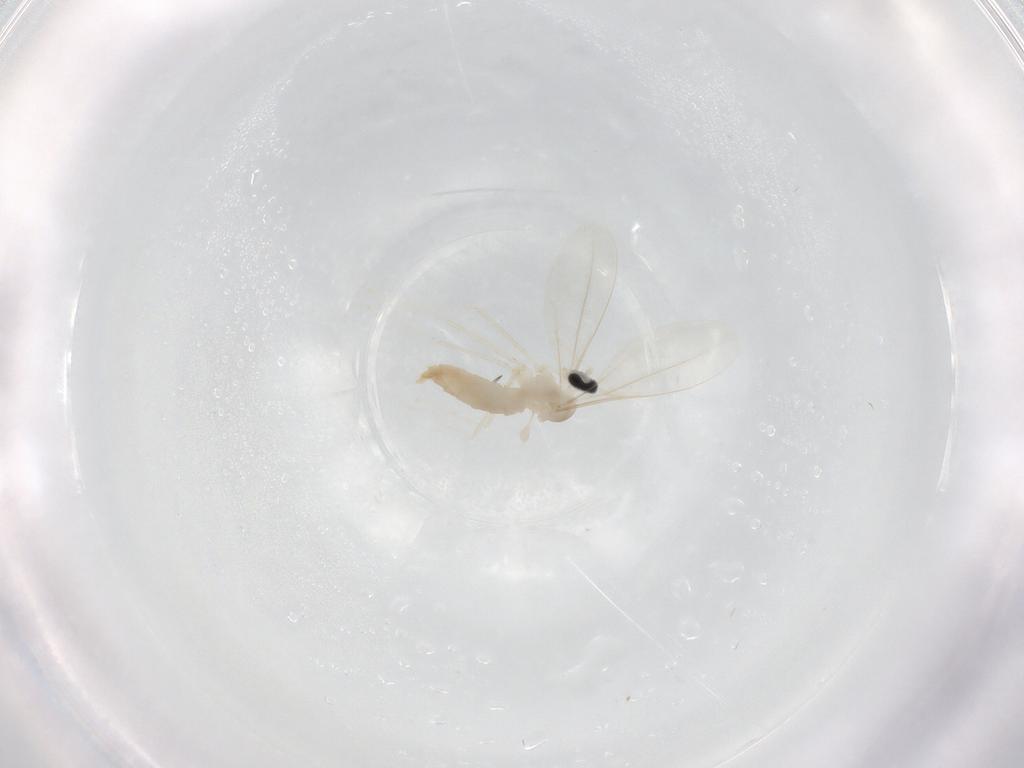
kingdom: Animalia
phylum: Arthropoda
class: Insecta
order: Diptera
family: Cecidomyiidae
